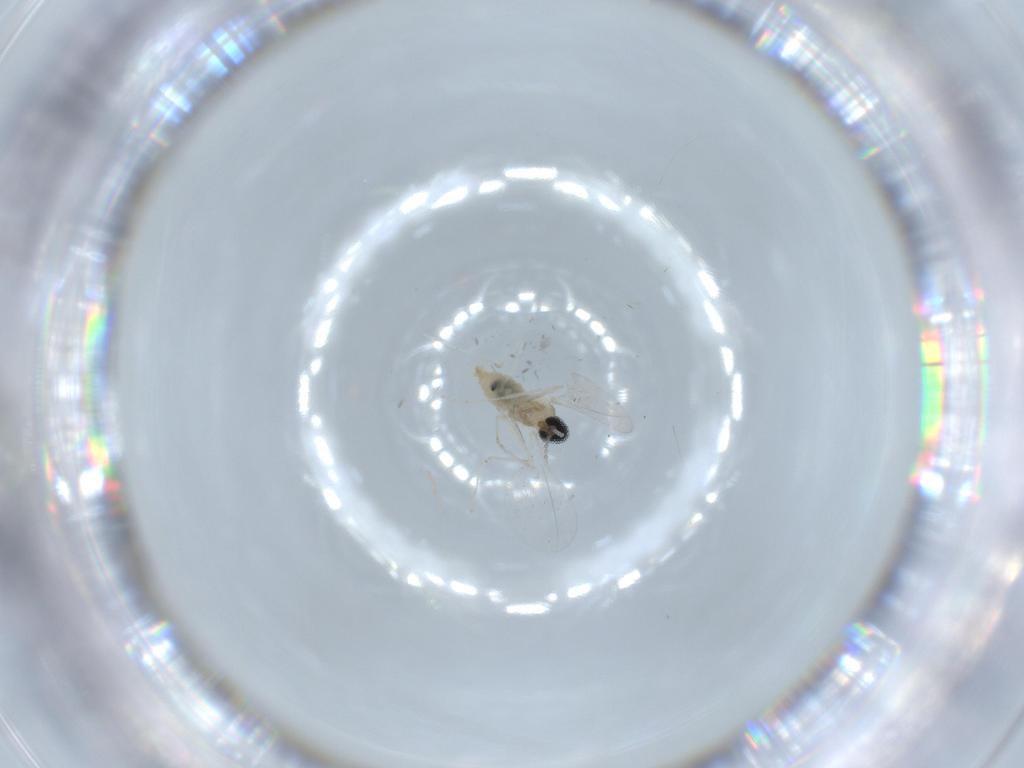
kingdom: Animalia
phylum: Arthropoda
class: Insecta
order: Diptera
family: Cecidomyiidae
